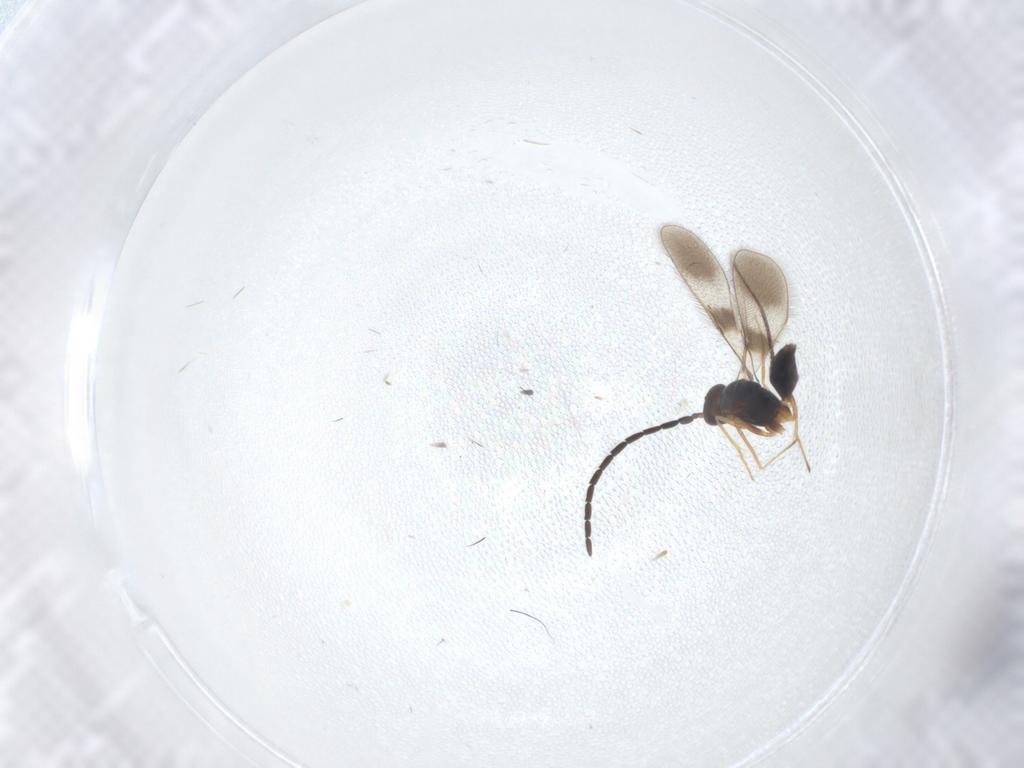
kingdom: Animalia
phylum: Arthropoda
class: Insecta
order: Hymenoptera
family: Mymaridae
